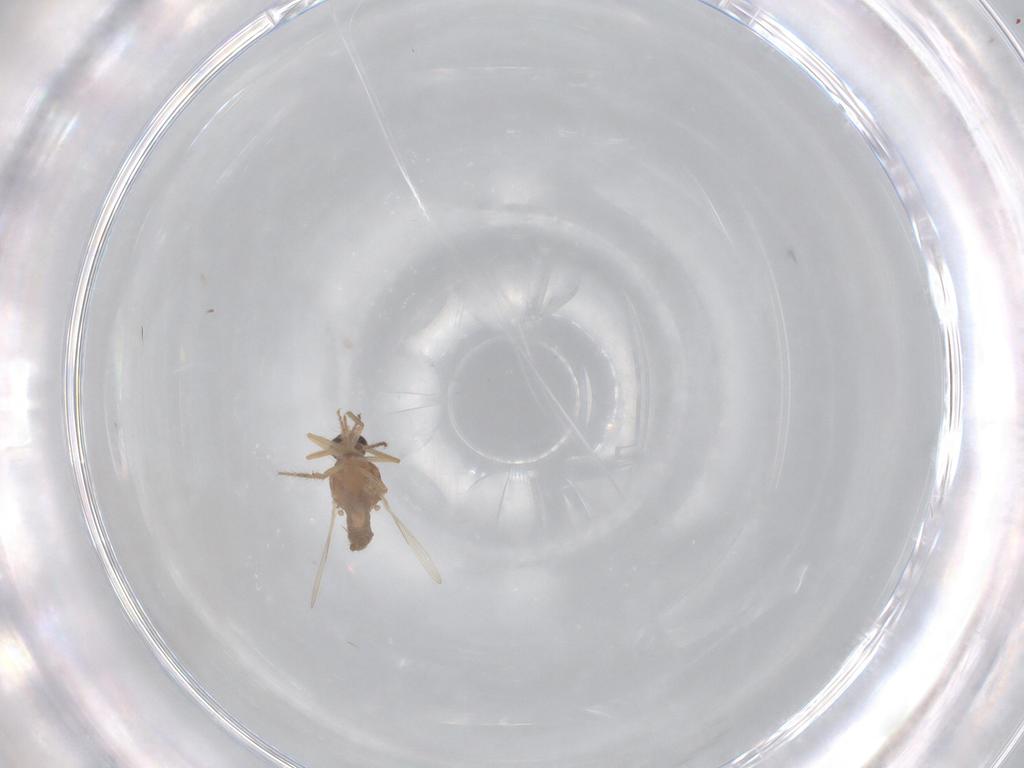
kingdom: Animalia
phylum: Arthropoda
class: Insecta
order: Diptera
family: Ceratopogonidae
